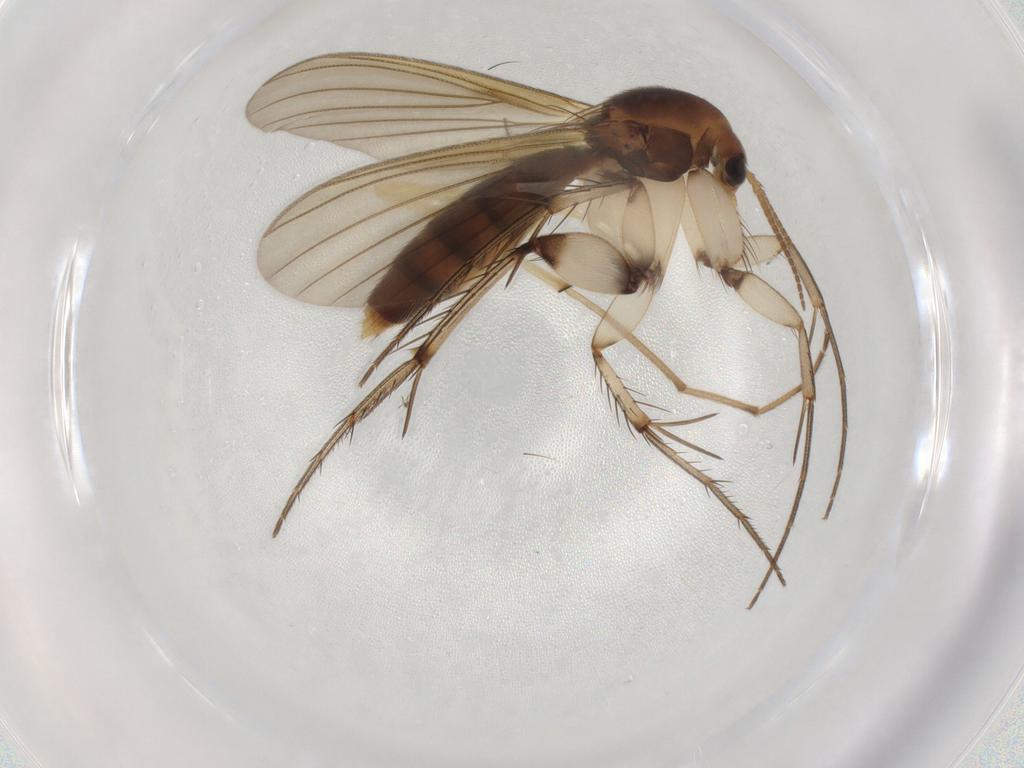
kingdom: Animalia
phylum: Arthropoda
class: Insecta
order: Diptera
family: Mycetophilidae
